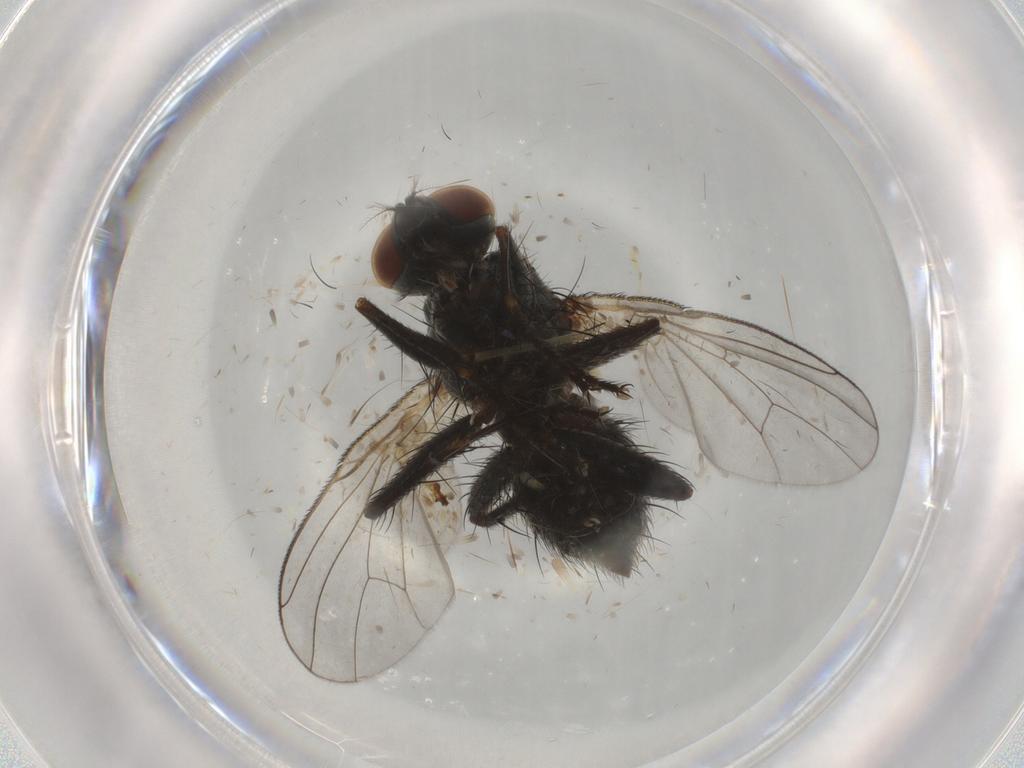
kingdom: Animalia
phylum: Arthropoda
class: Insecta
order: Diptera
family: Muscidae
